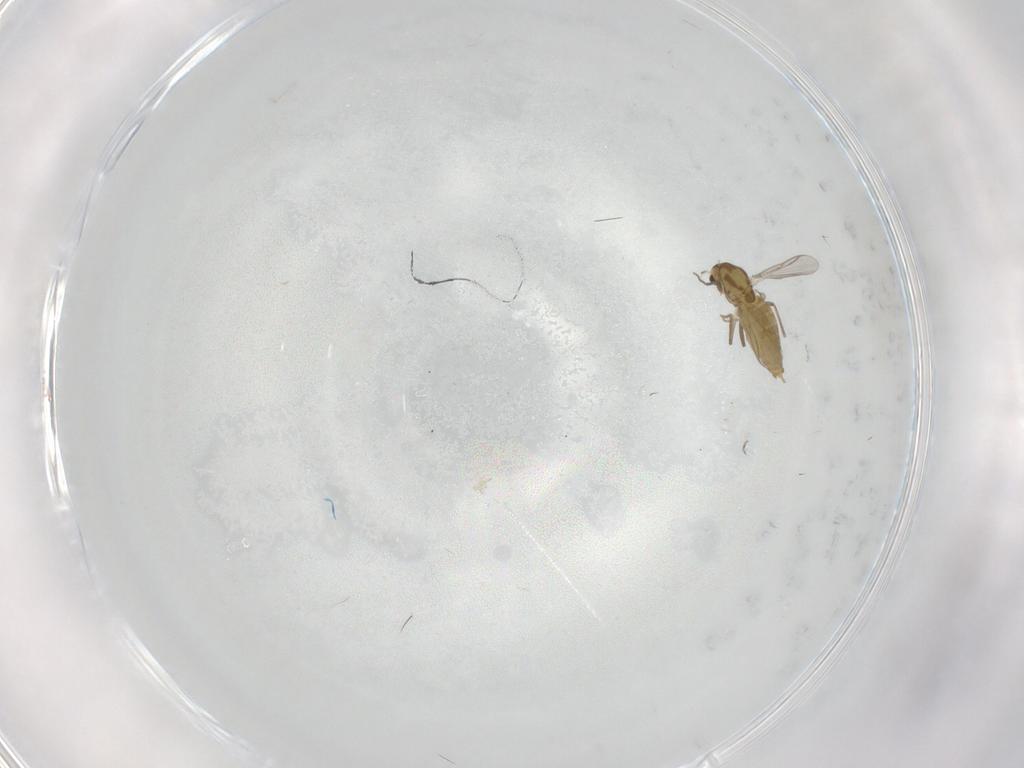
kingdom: Animalia
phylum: Arthropoda
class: Insecta
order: Diptera
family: Chironomidae
